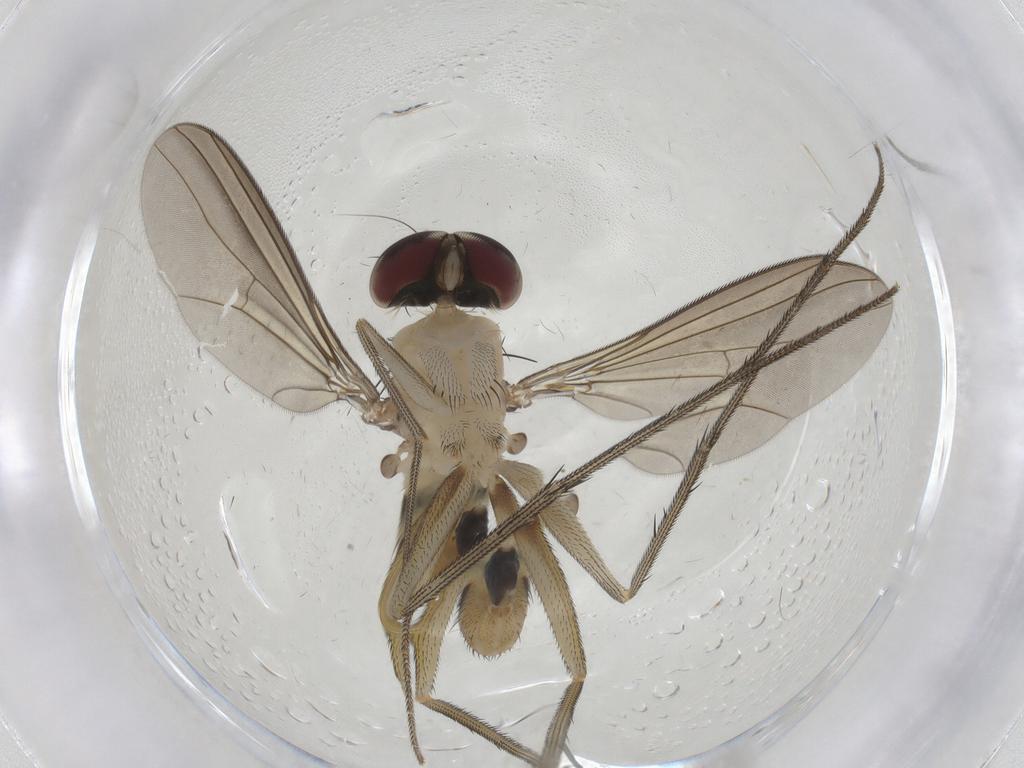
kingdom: Animalia
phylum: Arthropoda
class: Insecta
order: Diptera
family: Dolichopodidae
